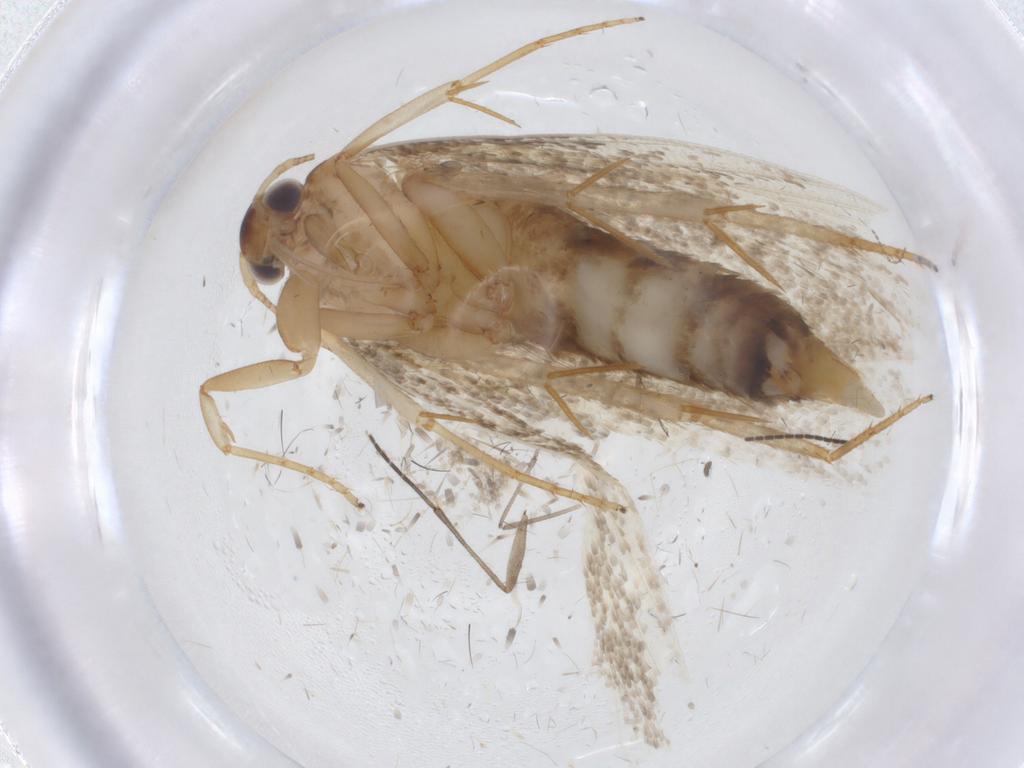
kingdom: Animalia
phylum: Arthropoda
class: Insecta
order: Lepidoptera
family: Oecophoridae
